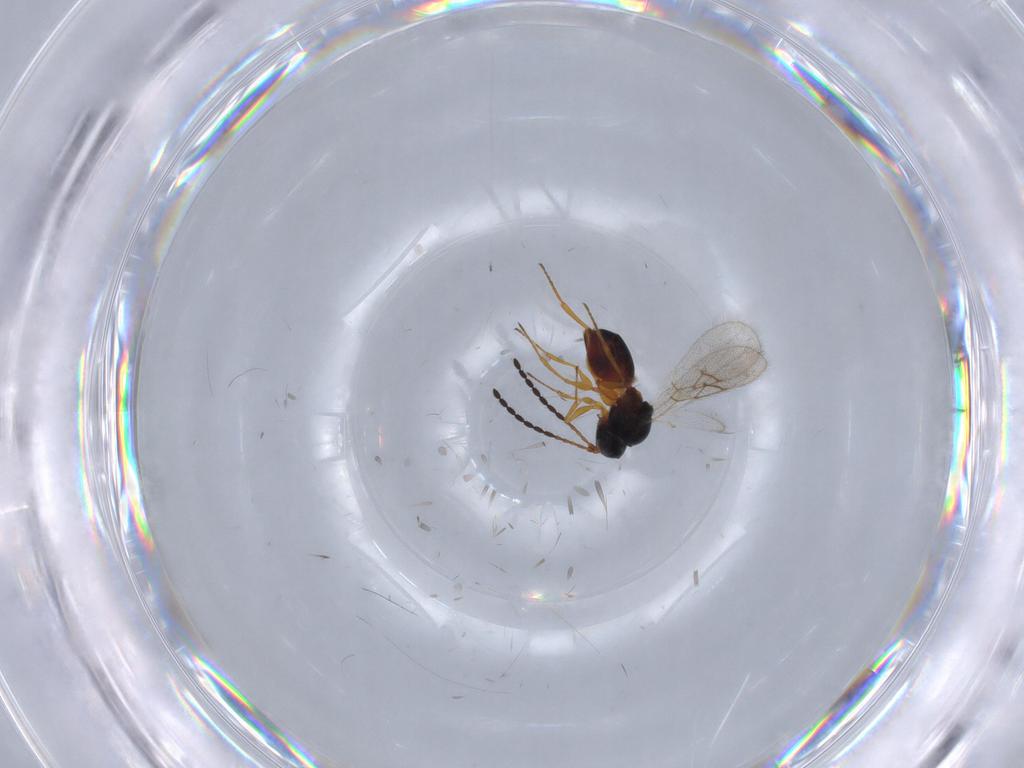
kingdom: Animalia
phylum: Arthropoda
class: Insecta
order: Hymenoptera
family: Figitidae
